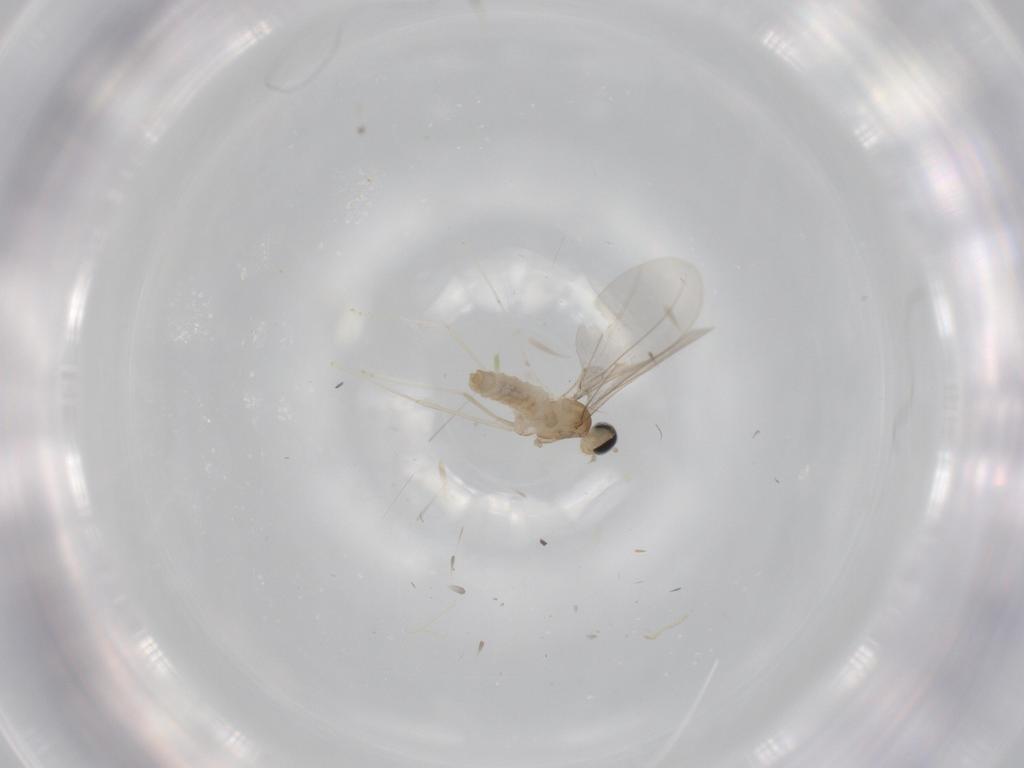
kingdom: Animalia
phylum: Arthropoda
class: Insecta
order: Diptera
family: Cecidomyiidae
